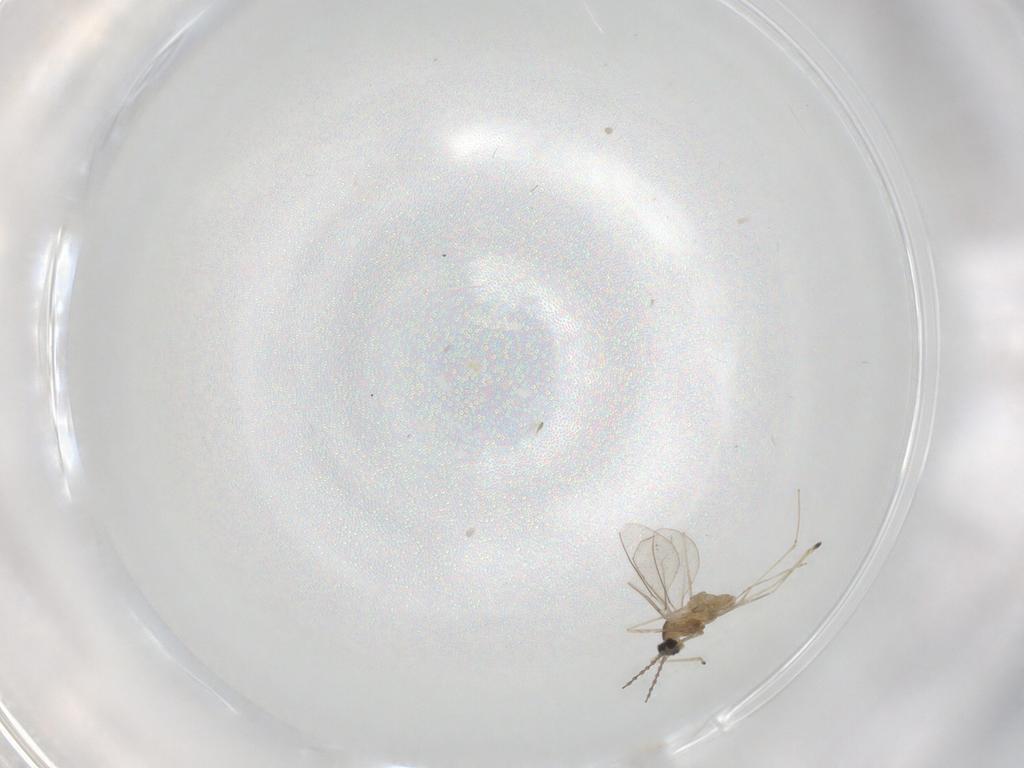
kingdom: Animalia
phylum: Arthropoda
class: Insecta
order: Diptera
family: Cecidomyiidae
